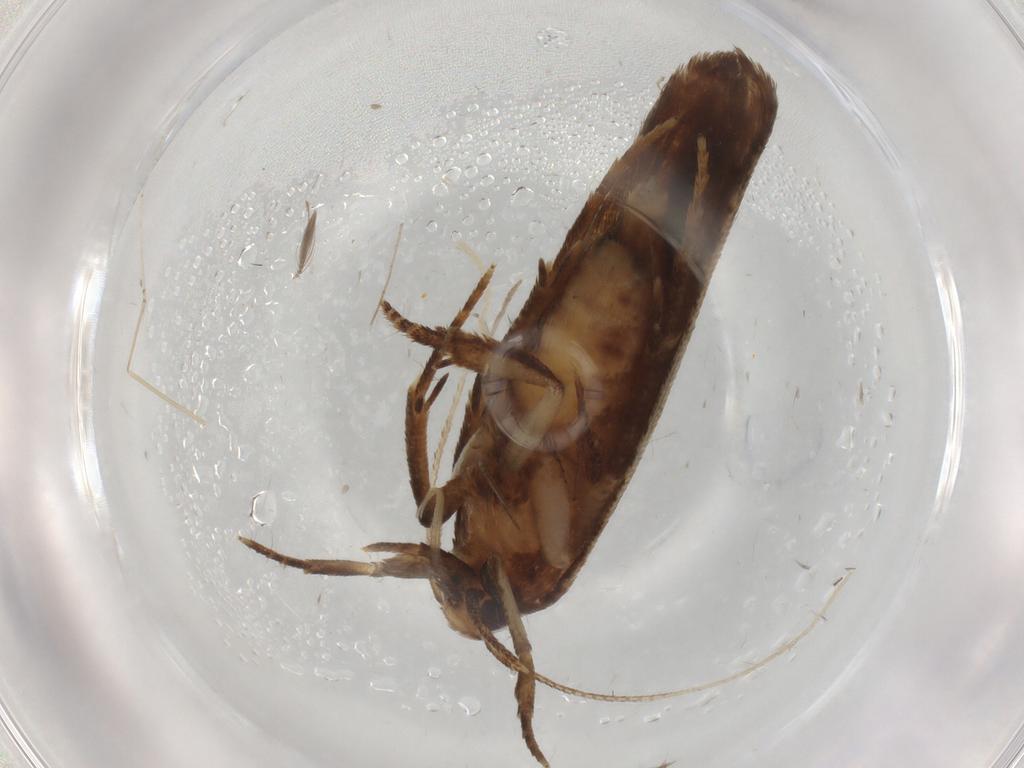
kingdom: Animalia
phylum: Arthropoda
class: Insecta
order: Lepidoptera
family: Cosmopterigidae
